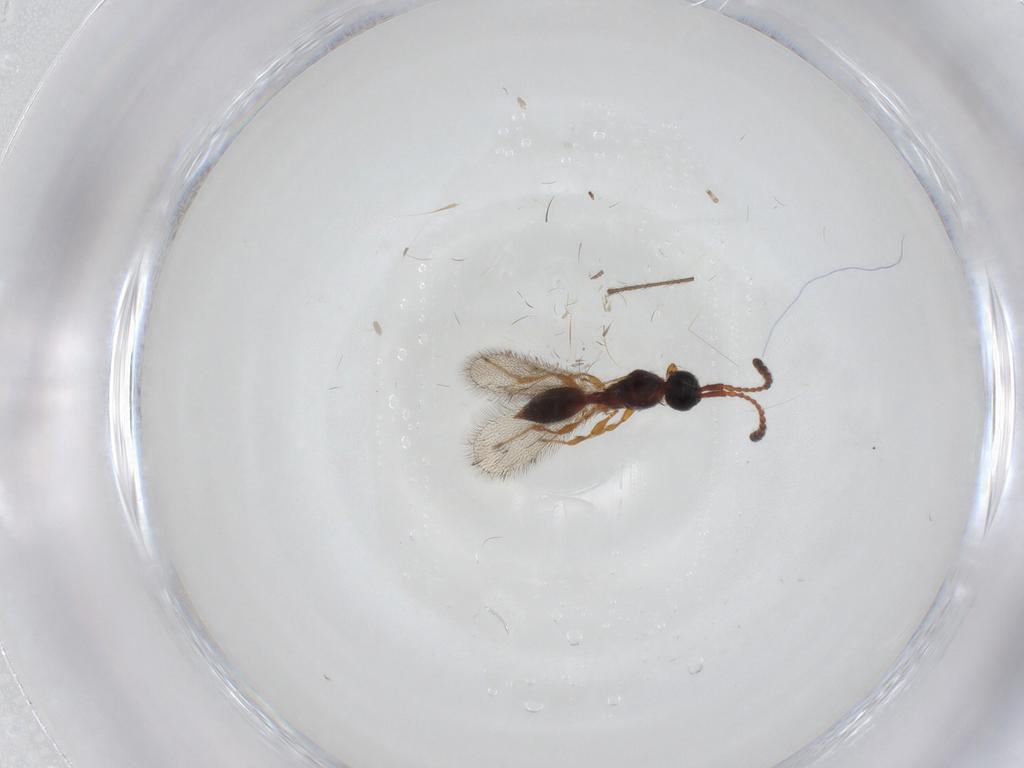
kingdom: Animalia
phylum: Arthropoda
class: Insecta
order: Hymenoptera
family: Diapriidae
